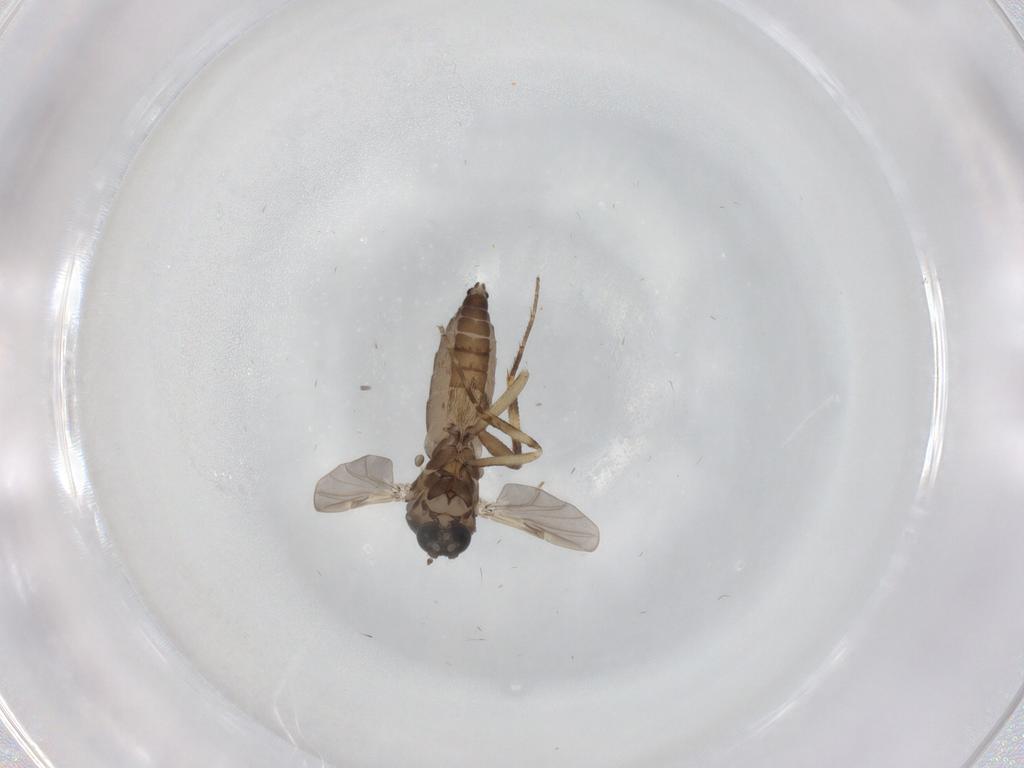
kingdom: Animalia
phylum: Arthropoda
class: Insecta
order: Diptera
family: Ceratopogonidae
